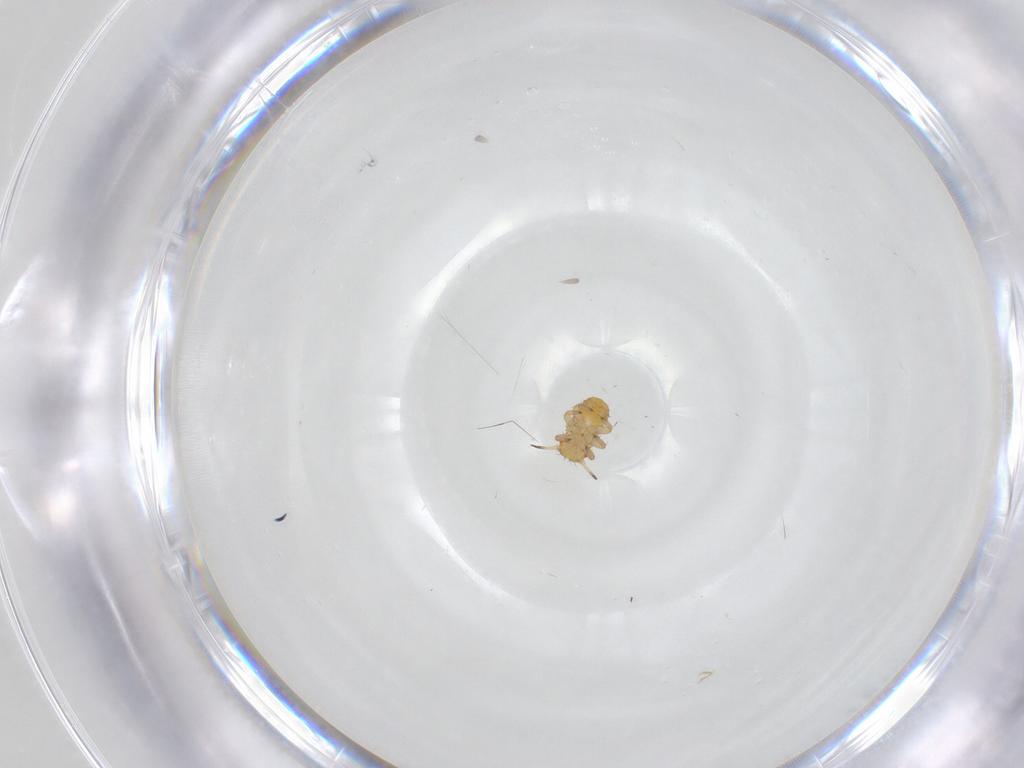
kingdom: Animalia
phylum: Arthropoda
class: Insecta
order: Hemiptera
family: Psyllidae
